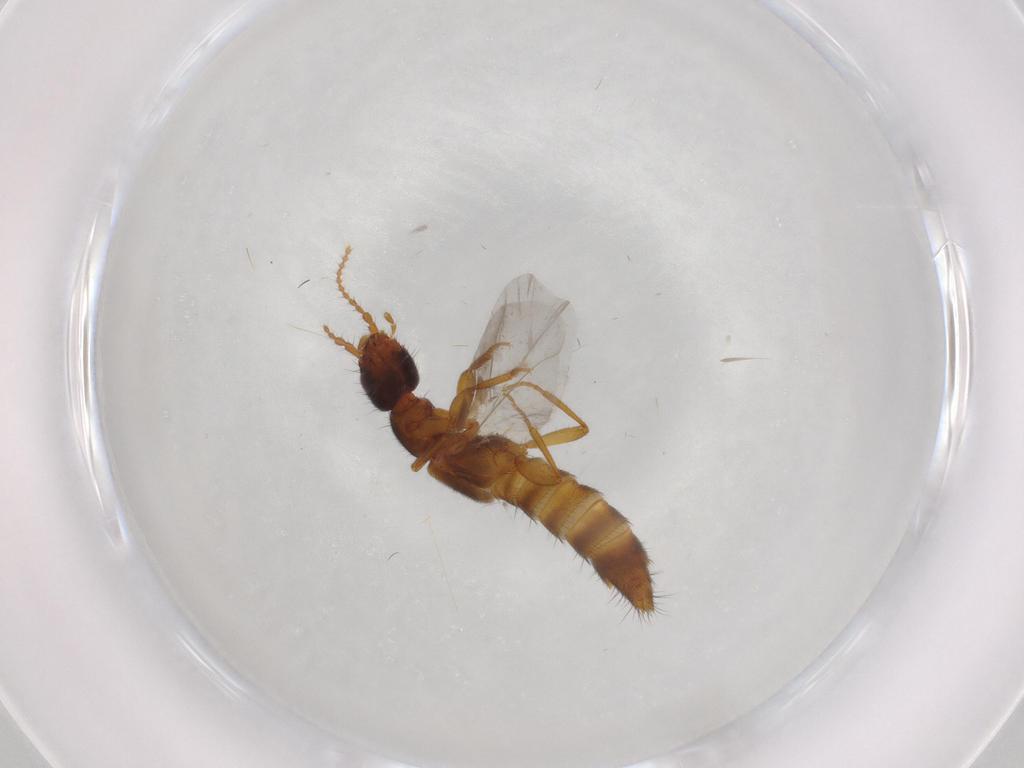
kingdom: Animalia
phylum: Arthropoda
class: Insecta
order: Coleoptera
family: Staphylinidae
